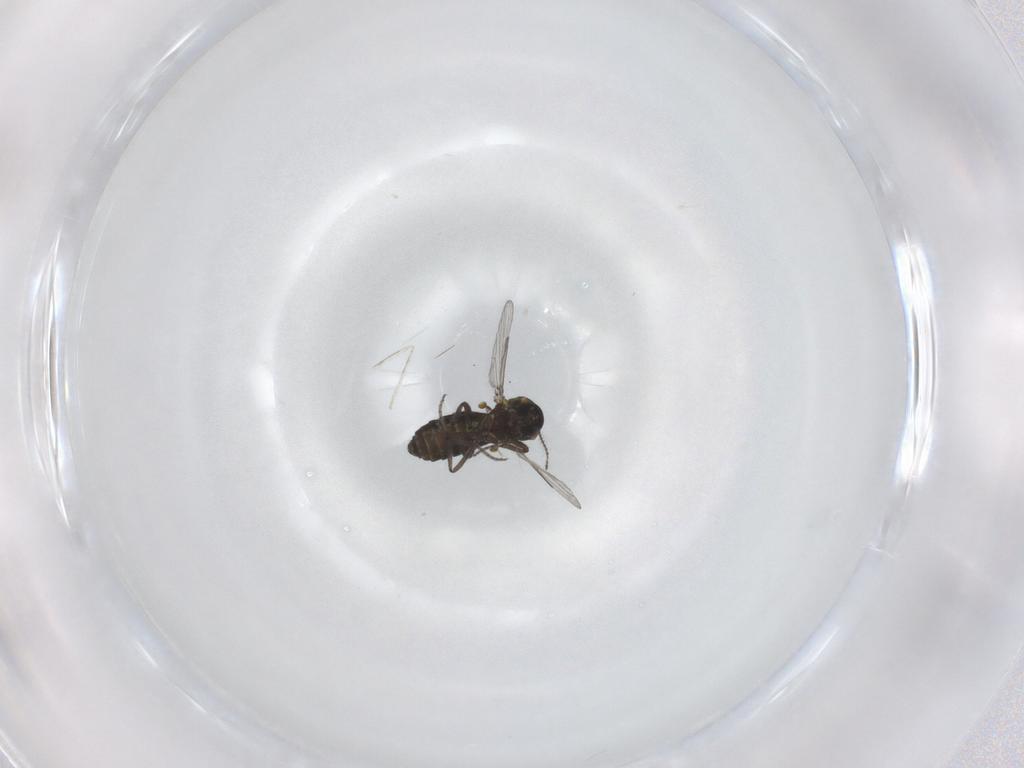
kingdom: Animalia
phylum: Arthropoda
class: Insecta
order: Diptera
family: Ceratopogonidae
